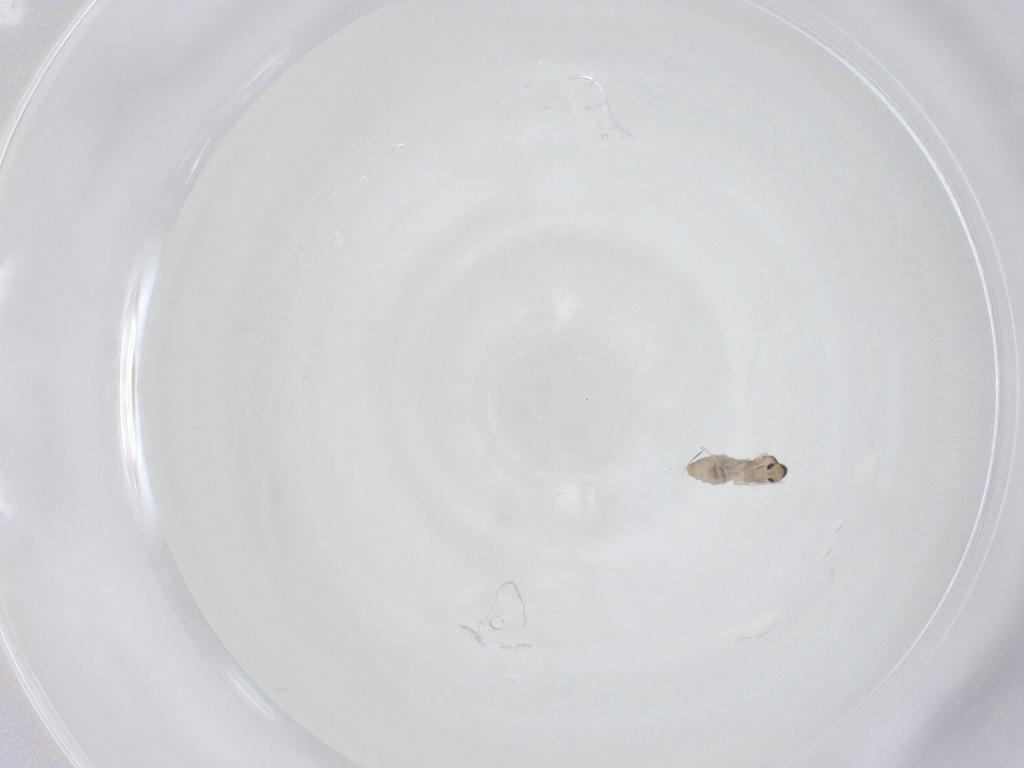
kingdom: Animalia
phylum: Arthropoda
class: Insecta
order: Diptera
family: Cecidomyiidae
